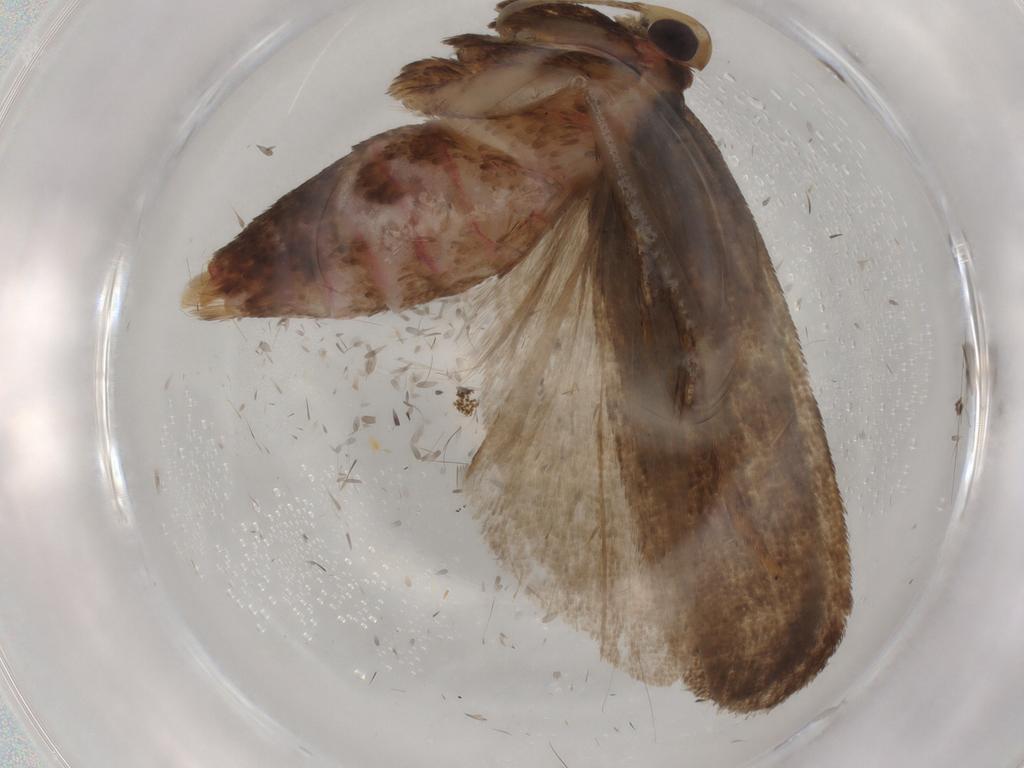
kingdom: Animalia
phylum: Arthropoda
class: Insecta
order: Lepidoptera
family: Autostichidae
